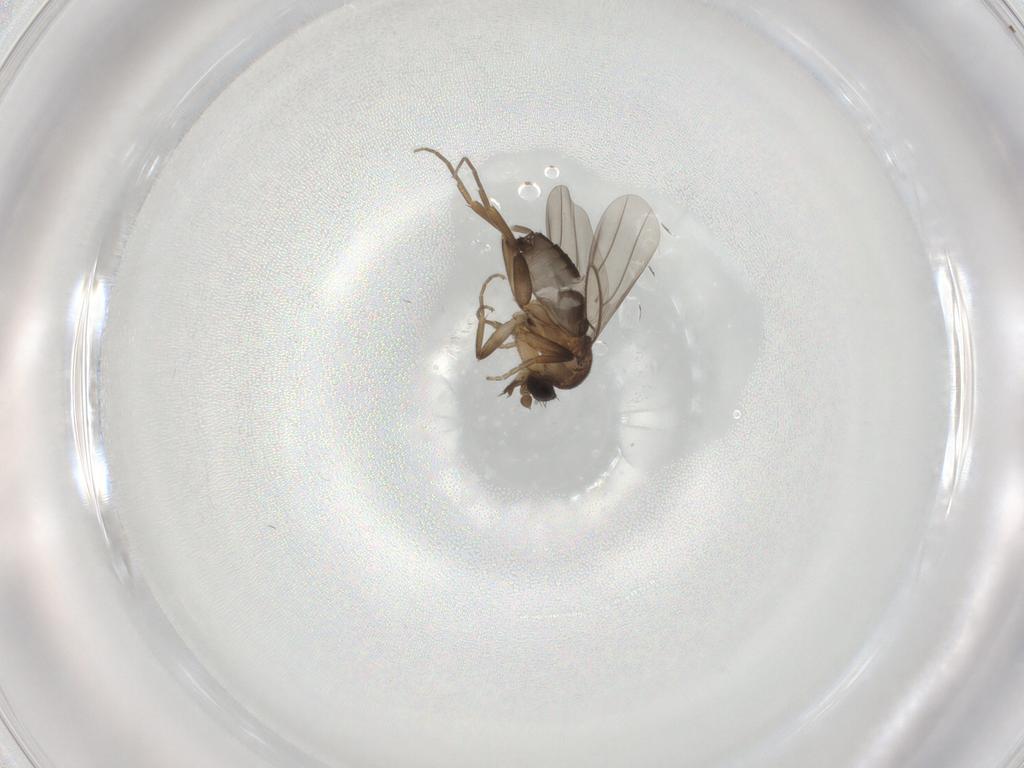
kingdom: Animalia
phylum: Arthropoda
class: Insecta
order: Diptera
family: Phoridae
